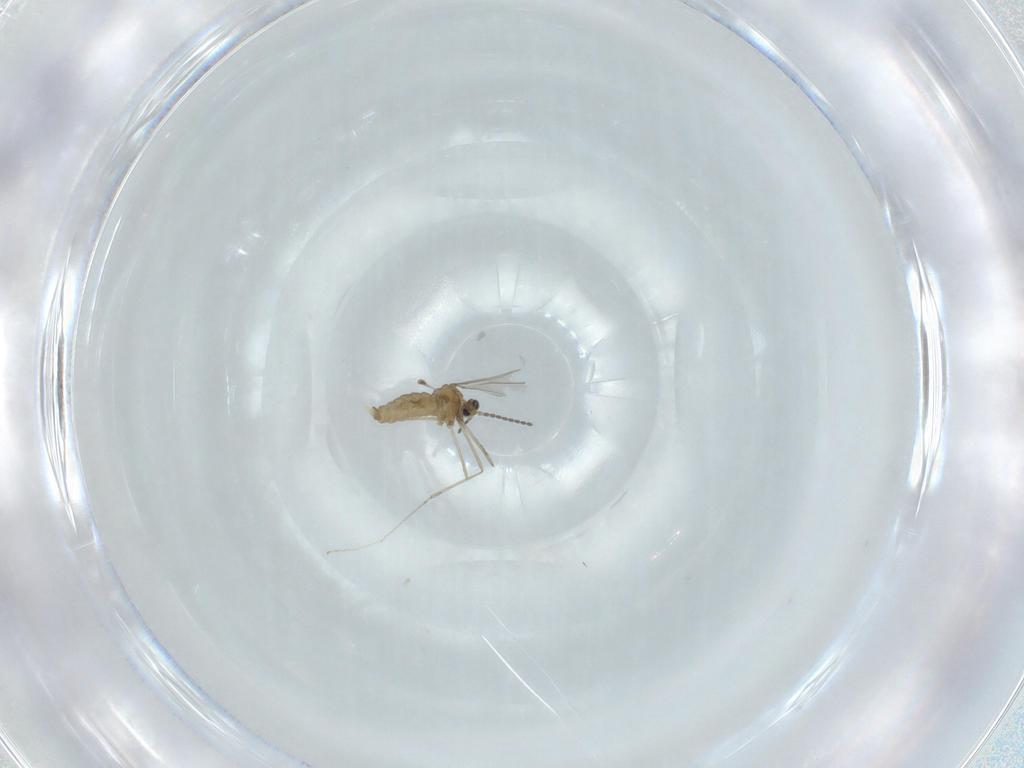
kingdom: Animalia
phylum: Arthropoda
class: Insecta
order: Diptera
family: Cecidomyiidae
